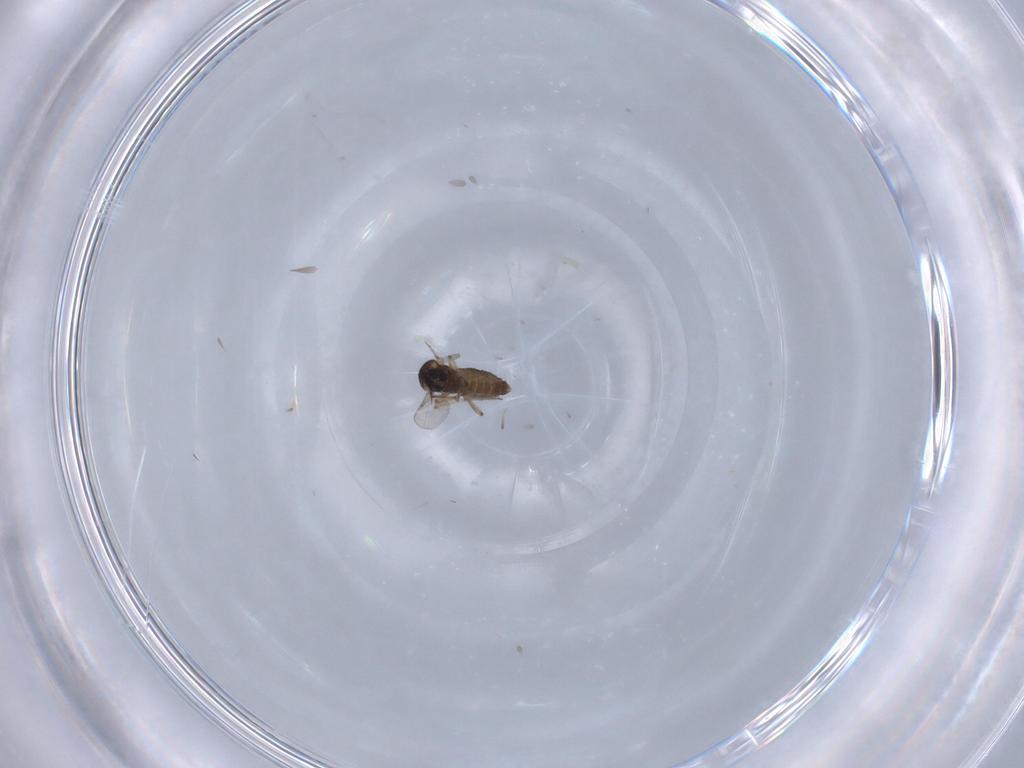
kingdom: Animalia
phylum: Arthropoda
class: Insecta
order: Diptera
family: Ceratopogonidae
